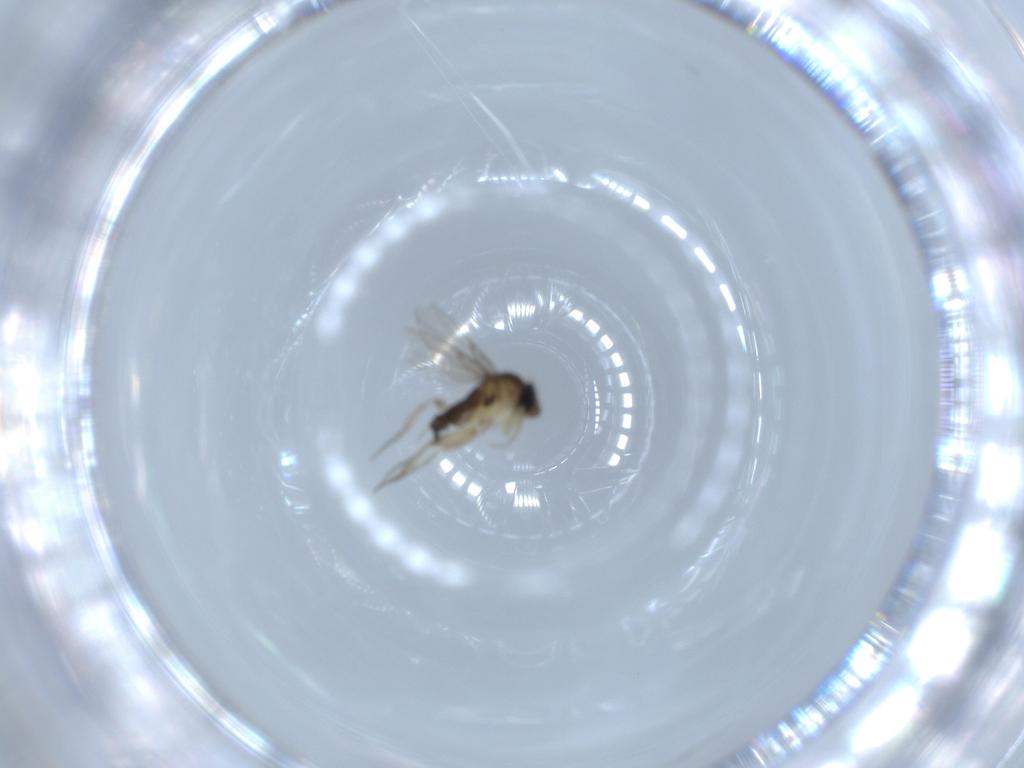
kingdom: Animalia
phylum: Arthropoda
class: Insecta
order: Diptera
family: Phoridae
